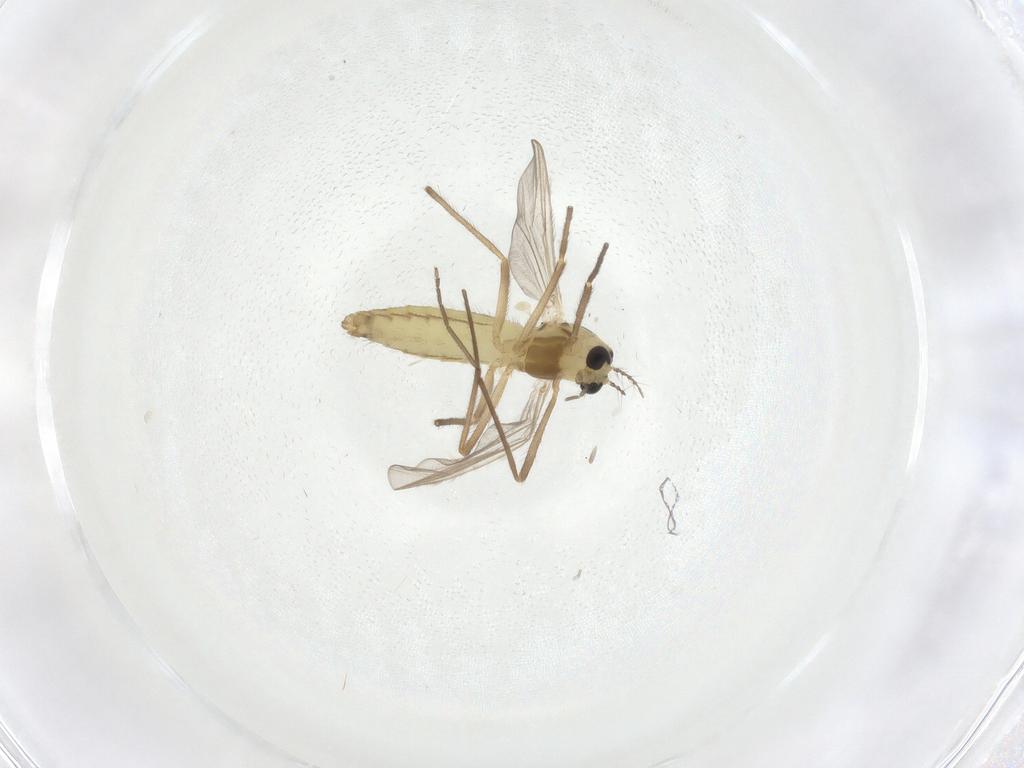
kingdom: Animalia
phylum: Arthropoda
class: Insecta
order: Diptera
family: Chironomidae
